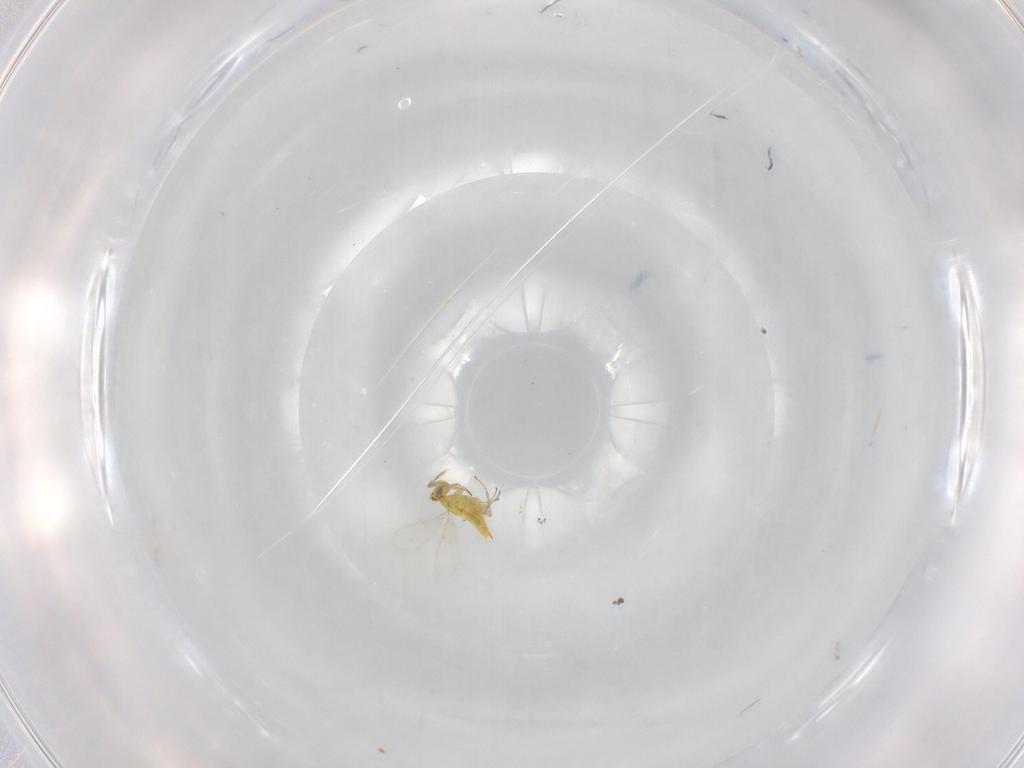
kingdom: Animalia
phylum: Arthropoda
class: Insecta
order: Hymenoptera
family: Aphelinidae
